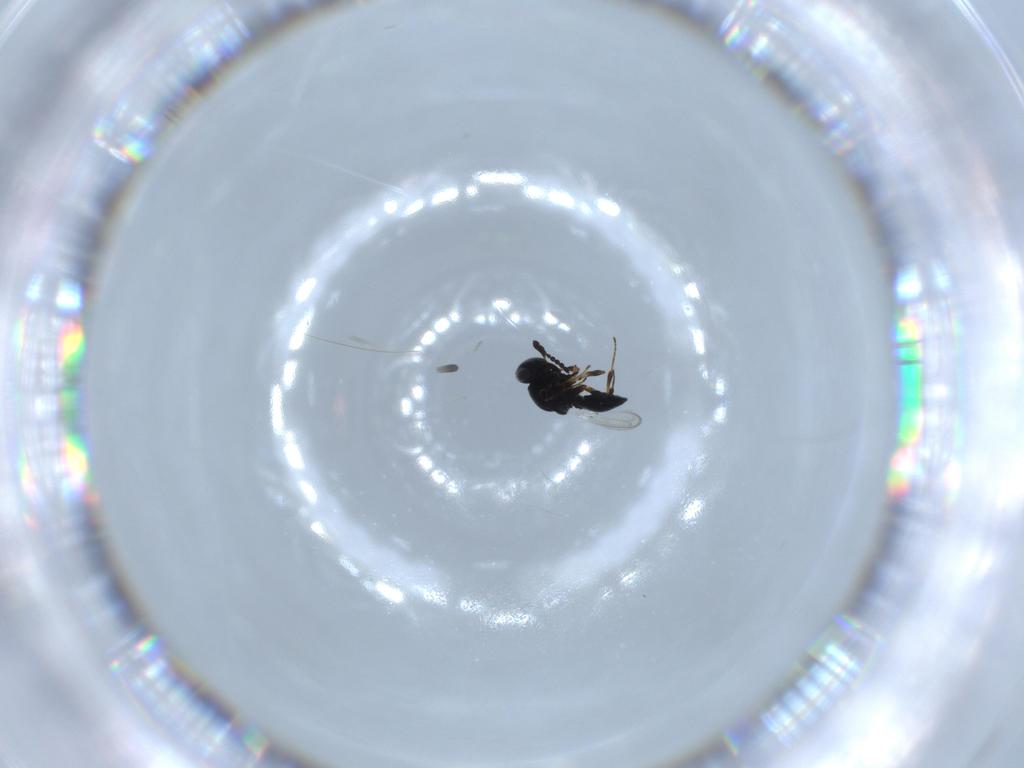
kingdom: Animalia
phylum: Arthropoda
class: Insecta
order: Hymenoptera
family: Platygastridae
